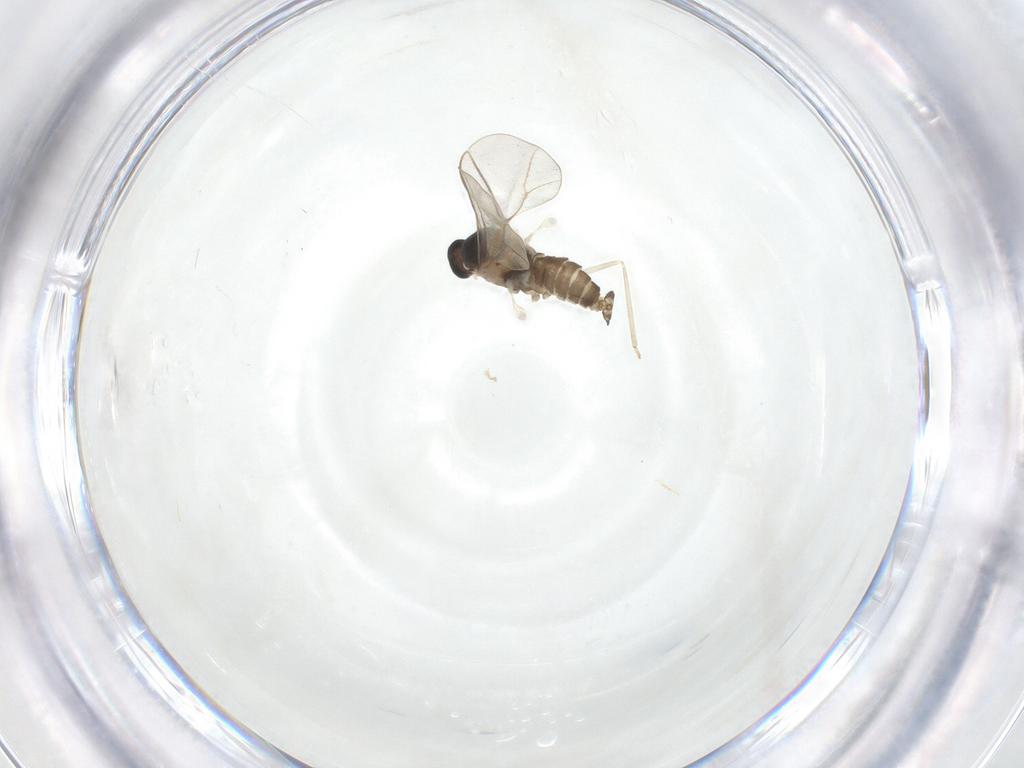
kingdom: Animalia
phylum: Arthropoda
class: Insecta
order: Diptera
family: Cecidomyiidae
